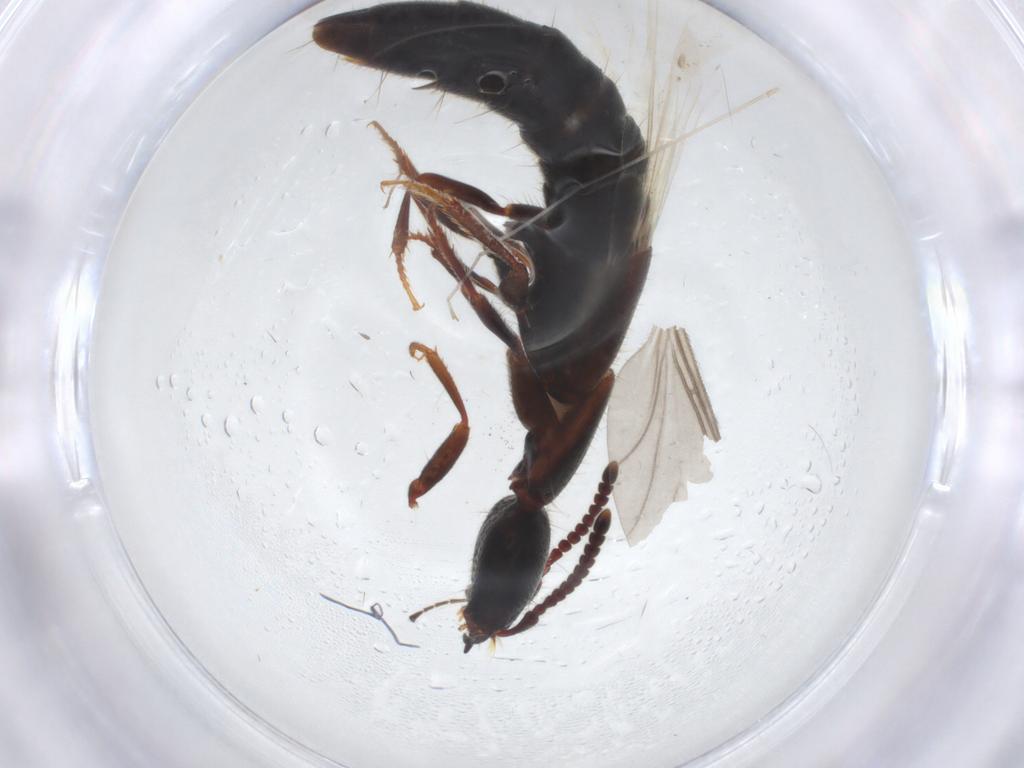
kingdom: Animalia
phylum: Arthropoda
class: Insecta
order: Coleoptera
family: Staphylinidae
